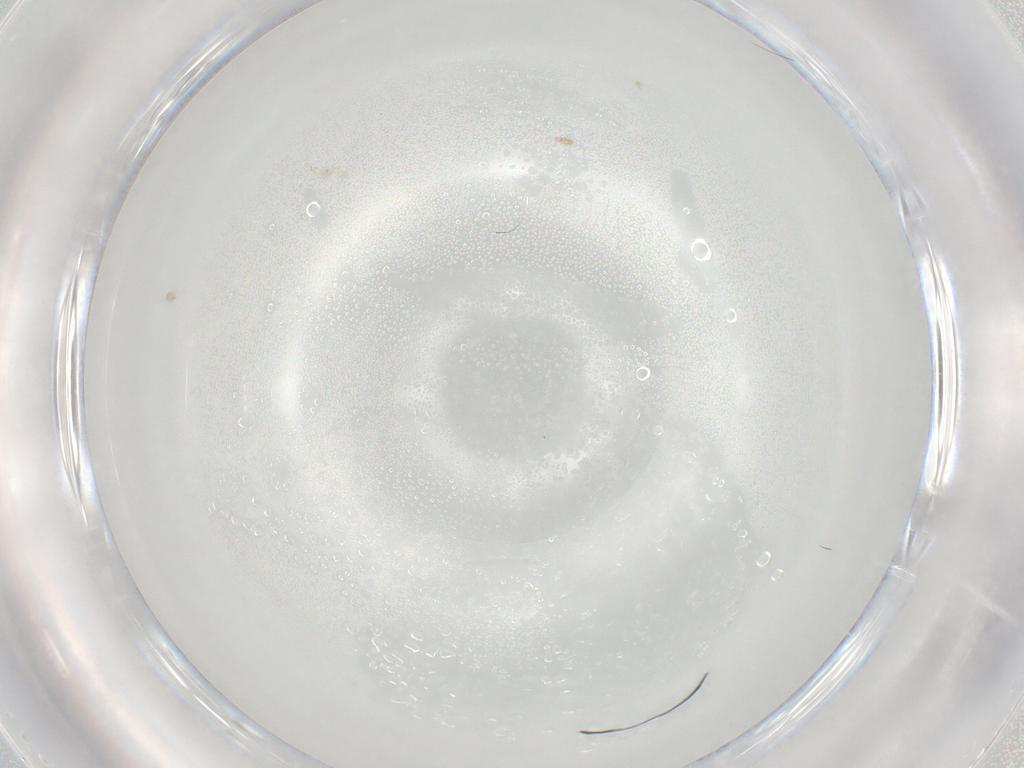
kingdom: Animalia
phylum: Arthropoda
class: Insecta
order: Hymenoptera
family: Mymaridae
